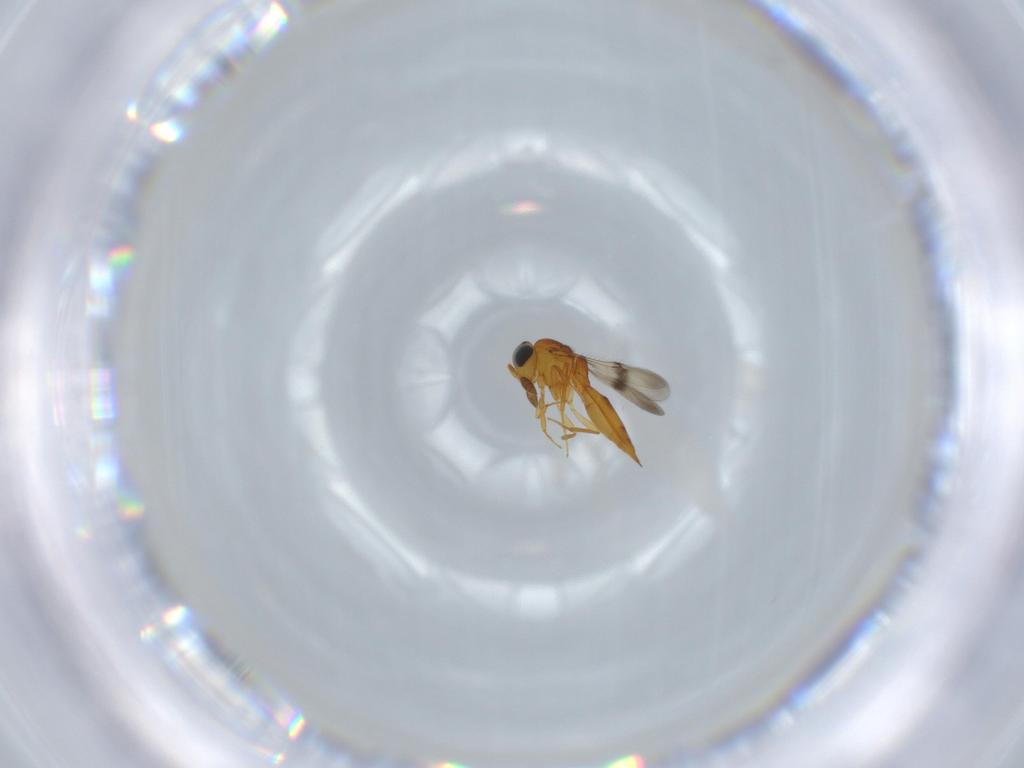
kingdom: Animalia
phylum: Arthropoda
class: Insecta
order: Hymenoptera
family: Scelionidae
